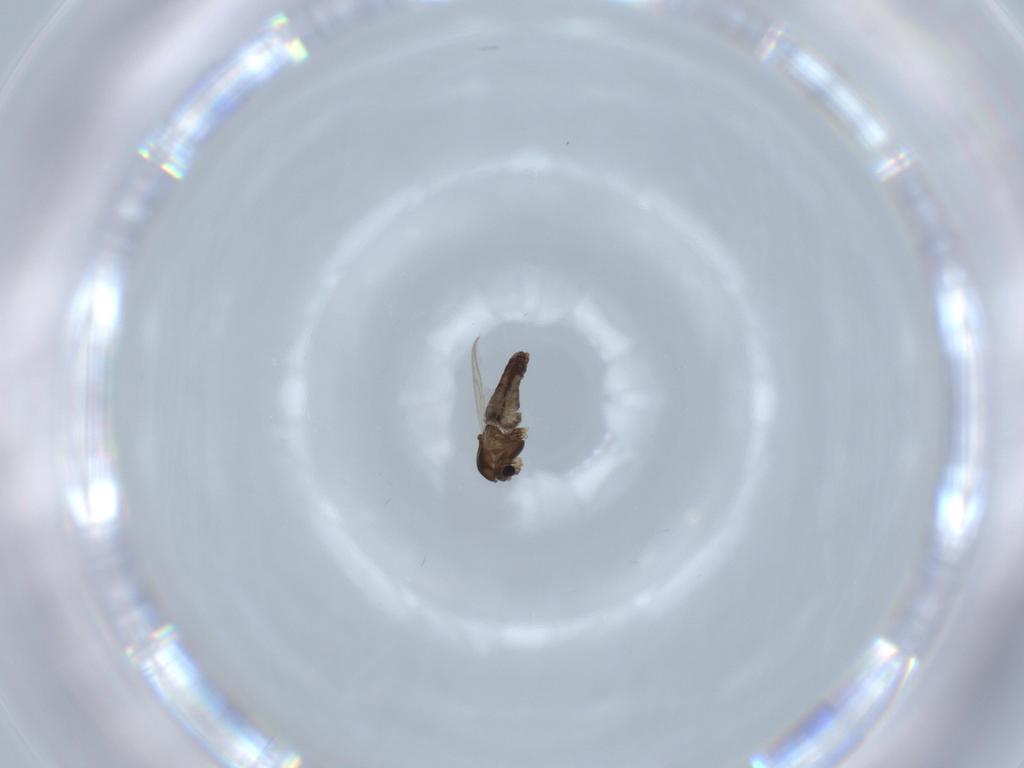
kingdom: Animalia
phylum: Arthropoda
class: Insecta
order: Diptera
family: Chironomidae
